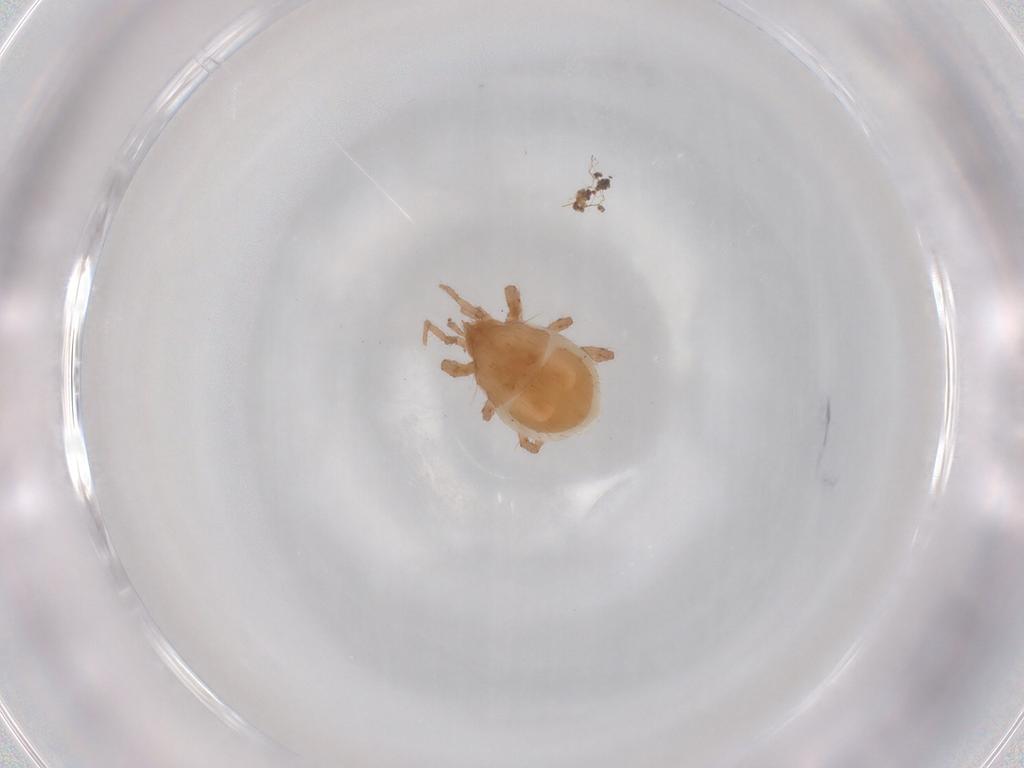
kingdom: Animalia
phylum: Arthropoda
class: Arachnida
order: Mesostigmata
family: Parasitidae
